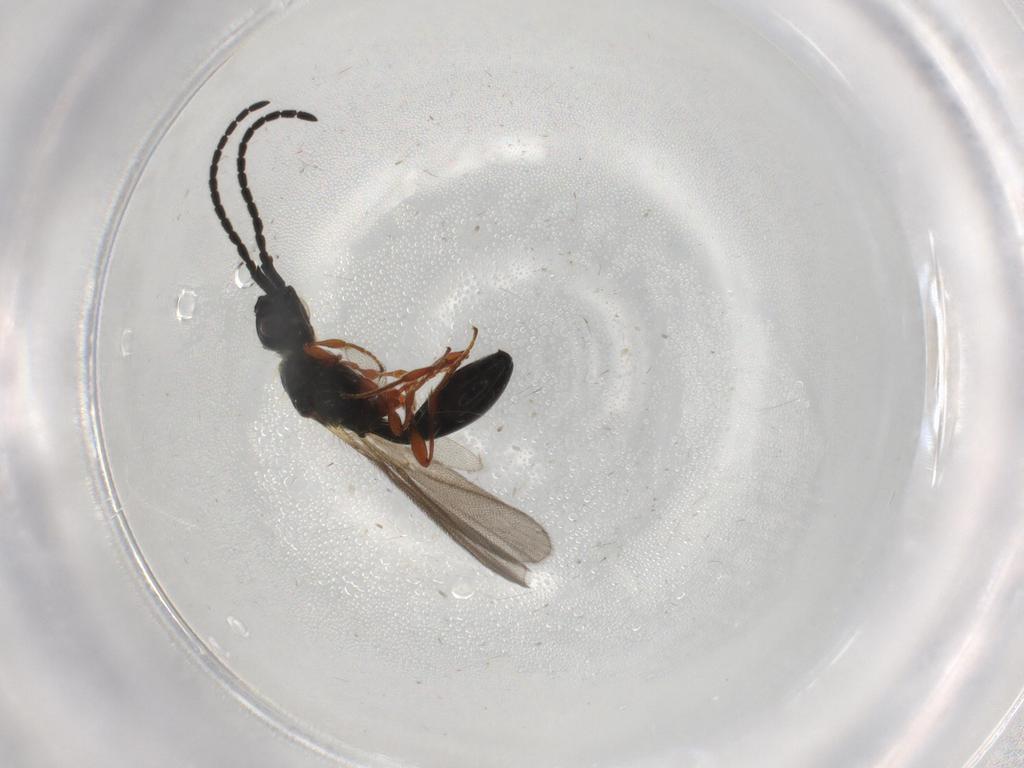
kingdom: Animalia
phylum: Arthropoda
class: Insecta
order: Hymenoptera
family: Diapriidae
